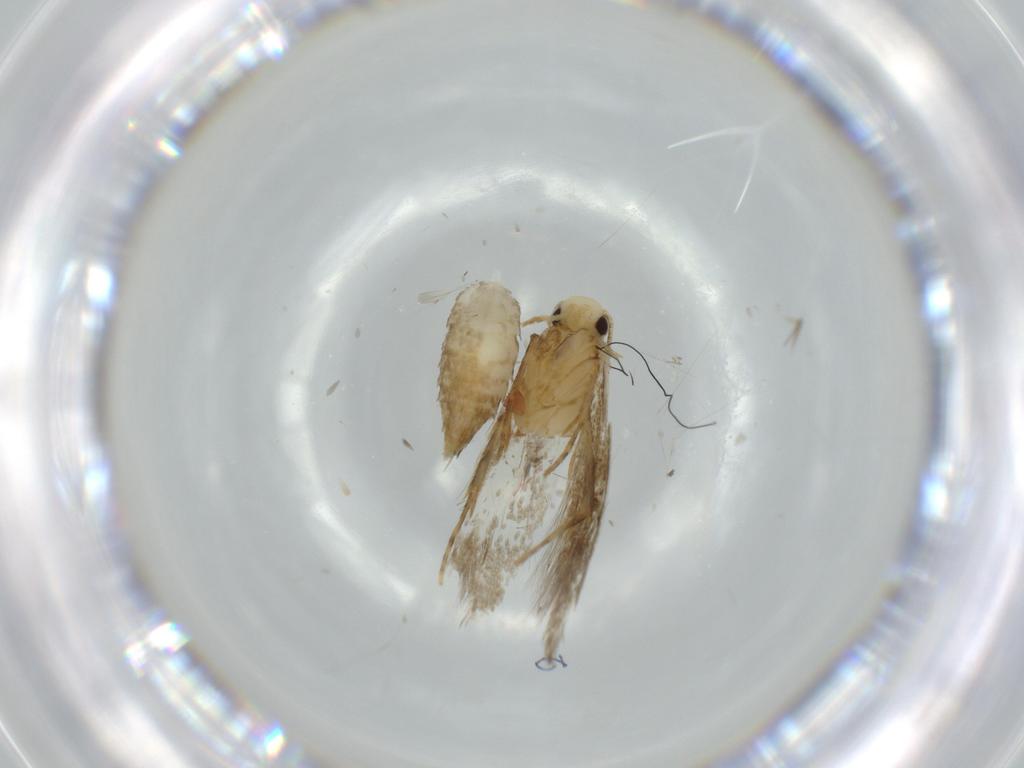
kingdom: Animalia
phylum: Arthropoda
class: Insecta
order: Lepidoptera
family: Tineidae
